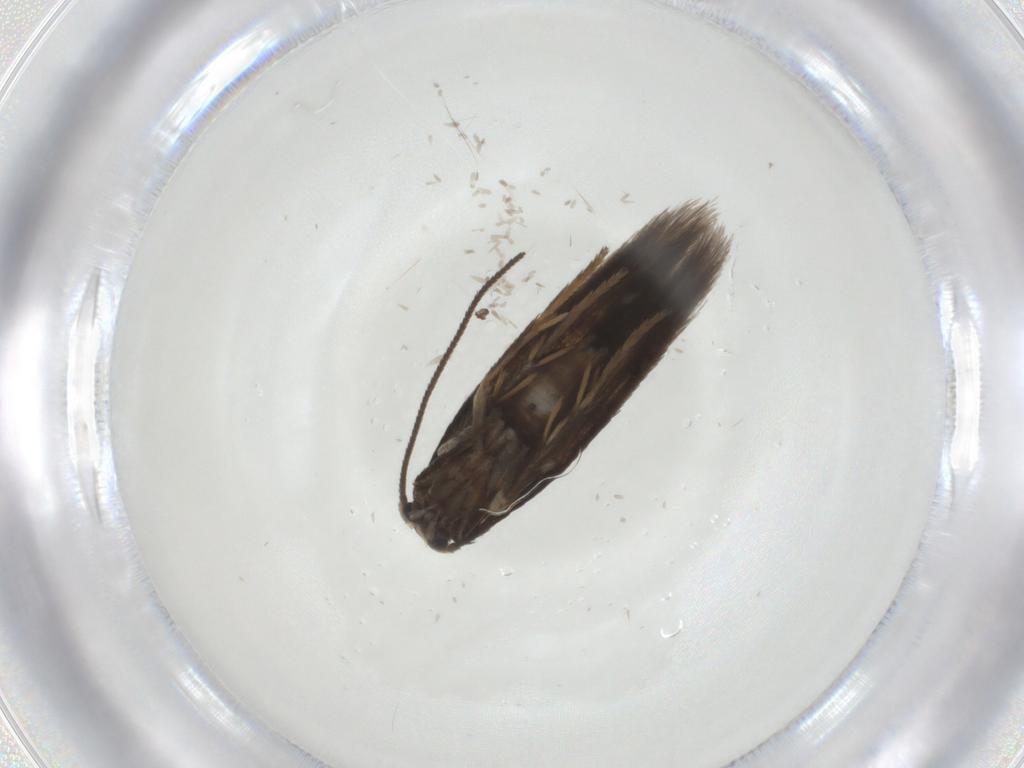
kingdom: Animalia
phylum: Arthropoda
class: Insecta
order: Lepidoptera
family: Nepticulidae
